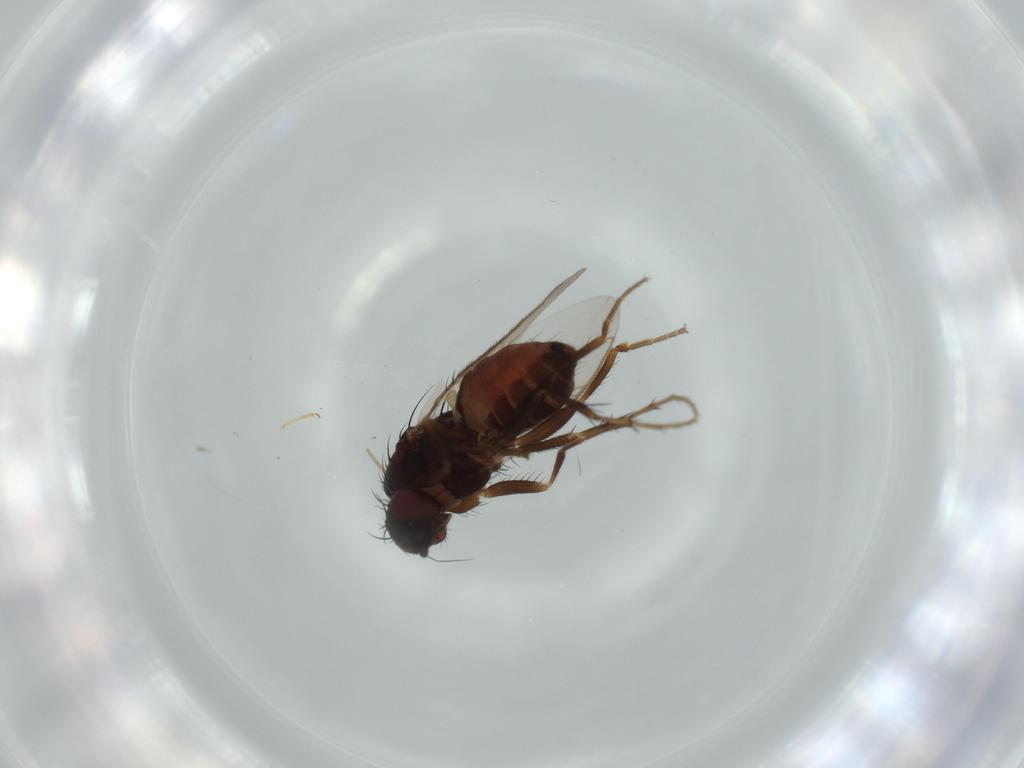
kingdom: Animalia
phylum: Arthropoda
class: Insecta
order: Diptera
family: Sphaeroceridae
